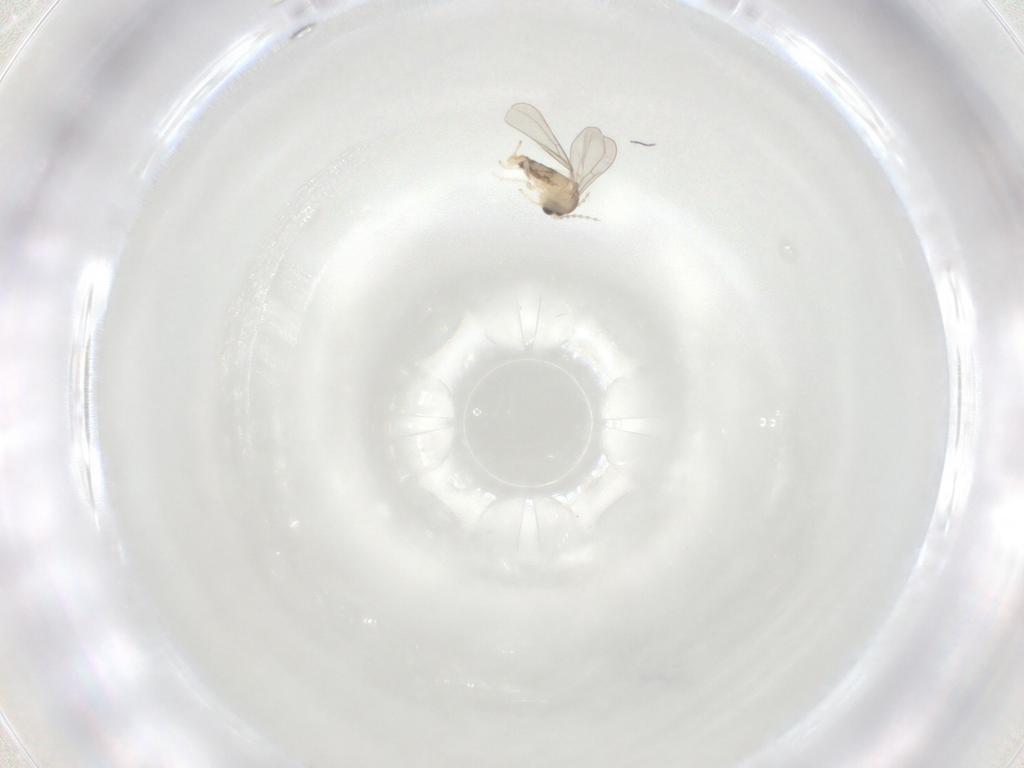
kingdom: Animalia
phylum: Arthropoda
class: Insecta
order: Diptera
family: Cecidomyiidae
